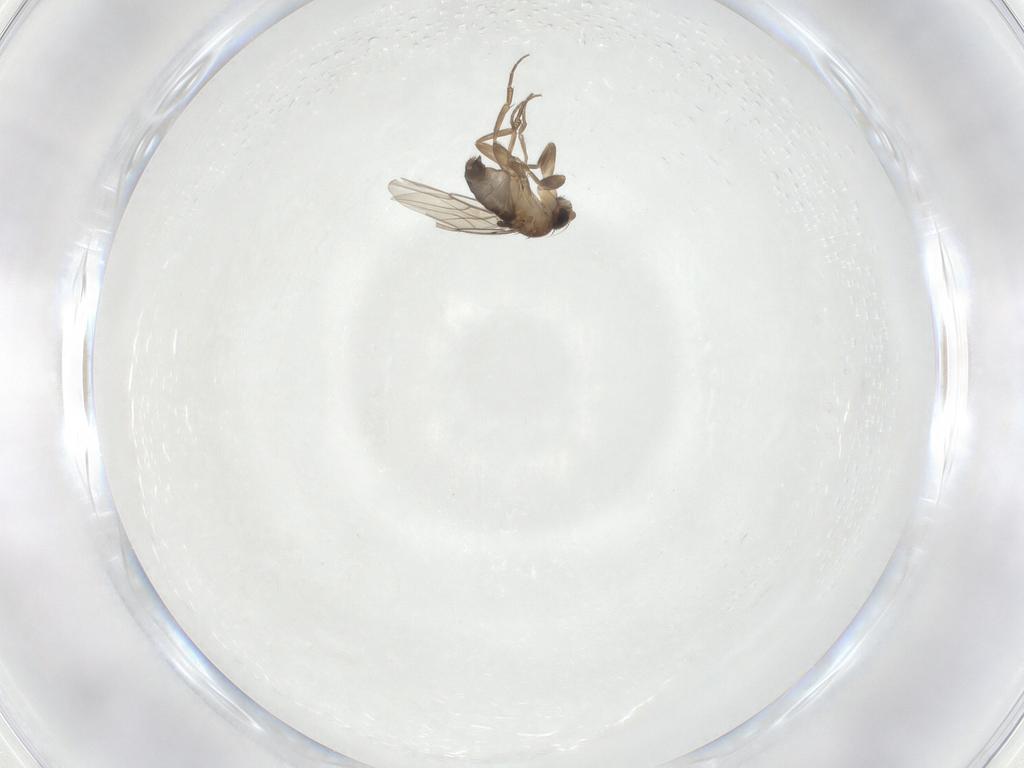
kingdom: Animalia
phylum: Arthropoda
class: Insecta
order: Diptera
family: Phoridae
